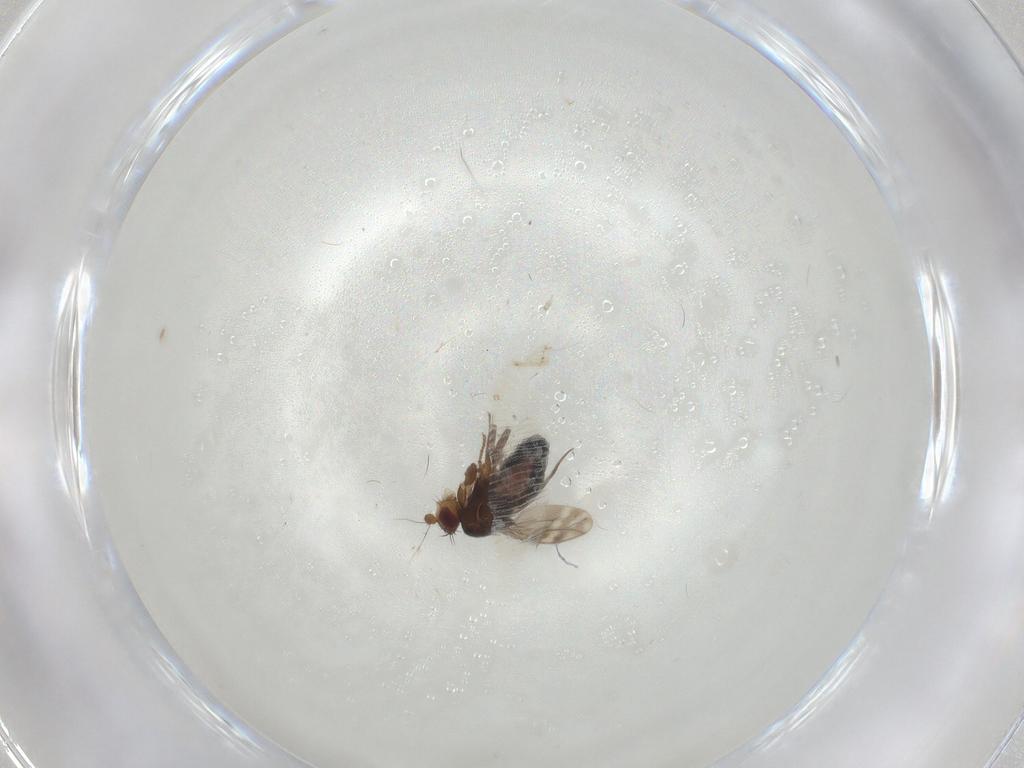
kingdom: Animalia
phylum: Arthropoda
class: Insecta
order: Diptera
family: Sphaeroceridae
